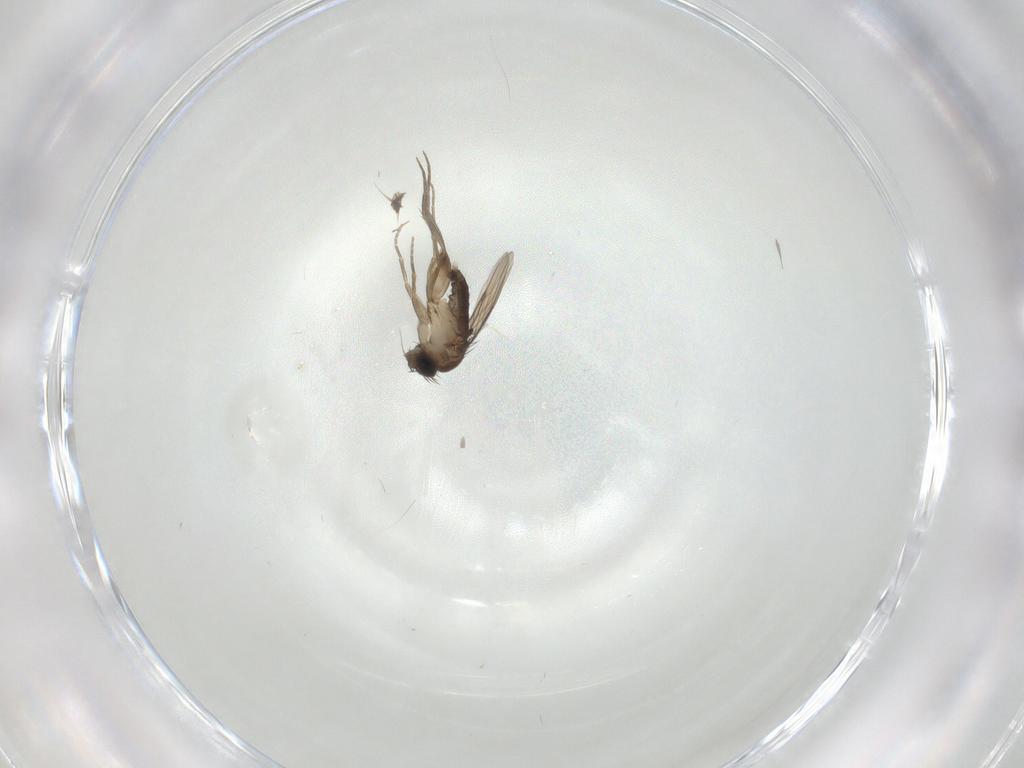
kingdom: Animalia
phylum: Arthropoda
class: Insecta
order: Diptera
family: Phoridae
